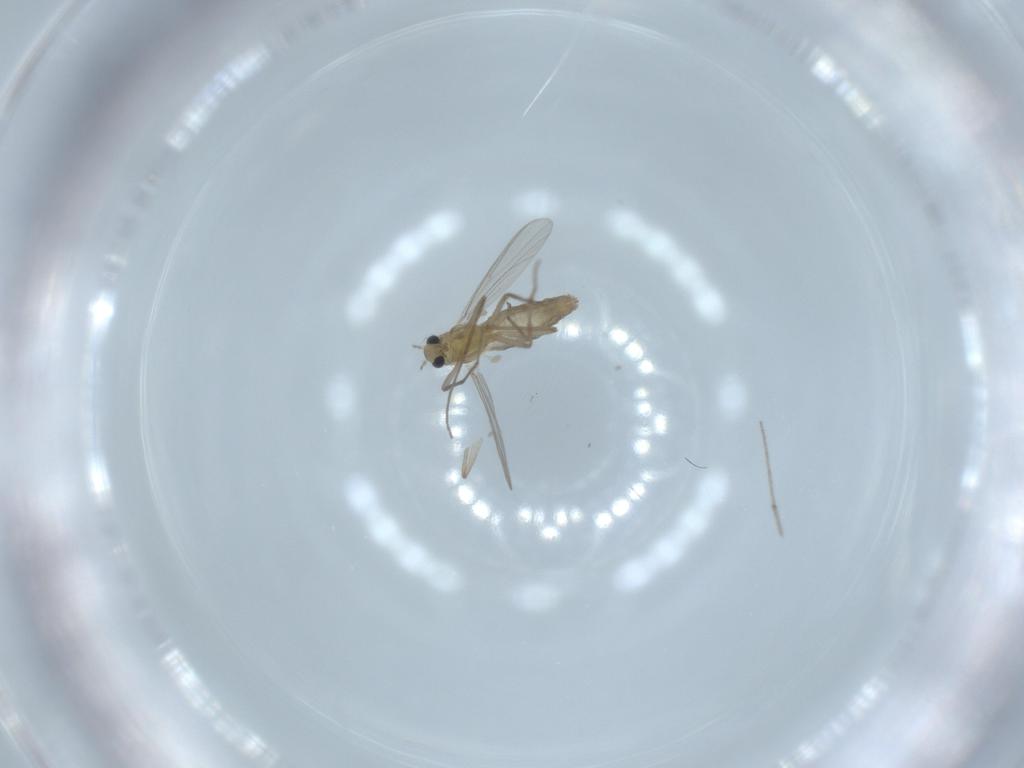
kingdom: Animalia
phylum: Arthropoda
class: Insecta
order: Diptera
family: Chironomidae
